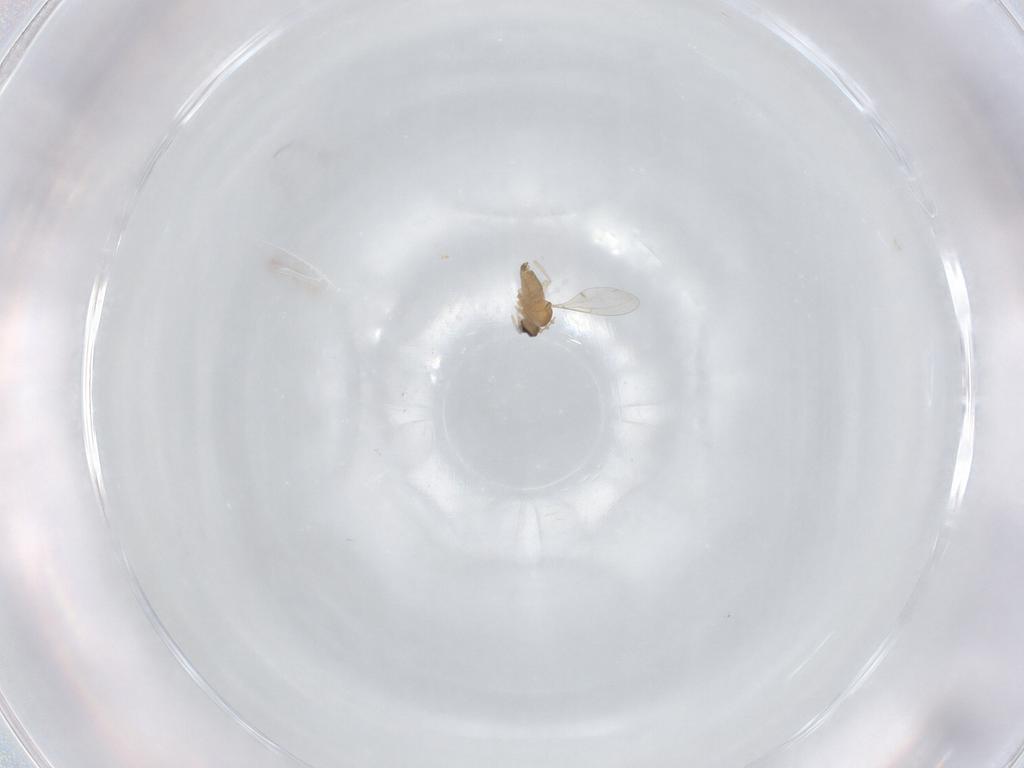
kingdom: Animalia
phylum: Arthropoda
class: Insecta
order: Diptera
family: Cecidomyiidae
